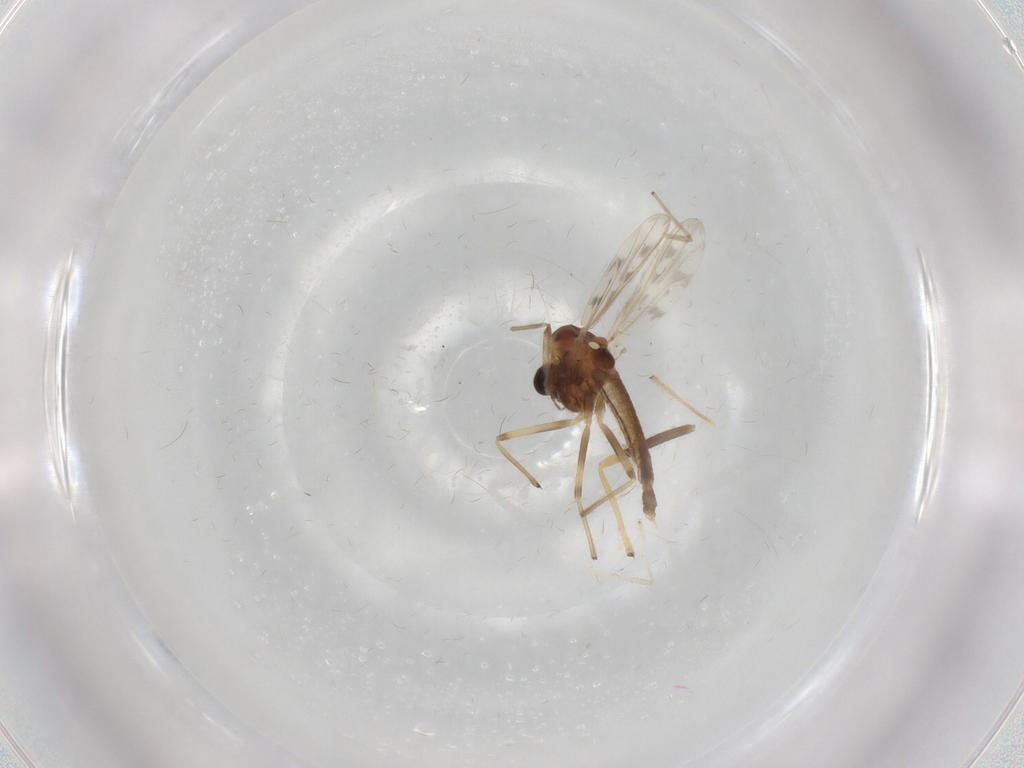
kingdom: Animalia
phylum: Arthropoda
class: Insecta
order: Diptera
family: Chironomidae
